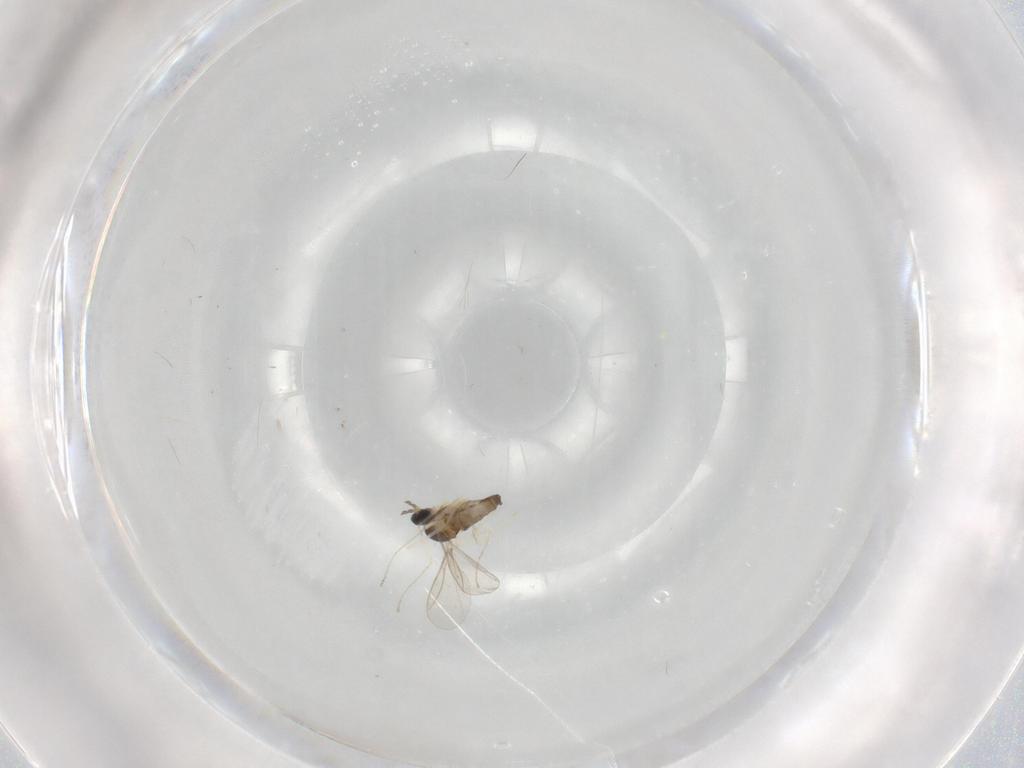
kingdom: Animalia
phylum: Arthropoda
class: Insecta
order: Diptera
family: Cecidomyiidae
